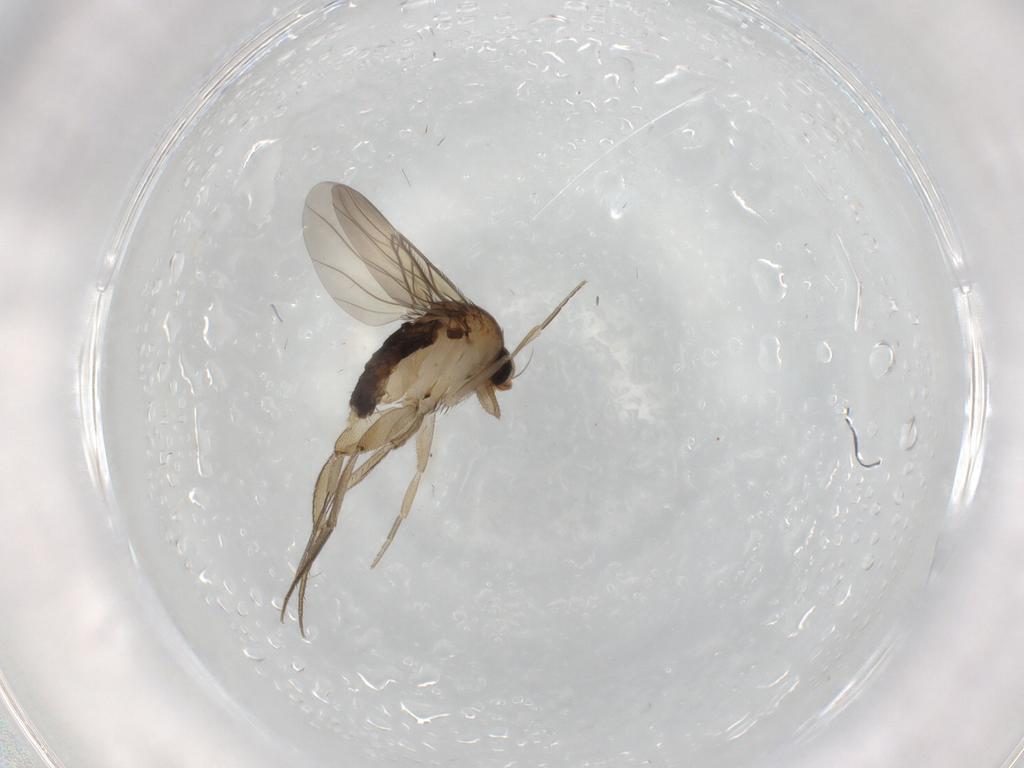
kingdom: Animalia
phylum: Arthropoda
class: Insecta
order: Diptera
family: Phoridae
